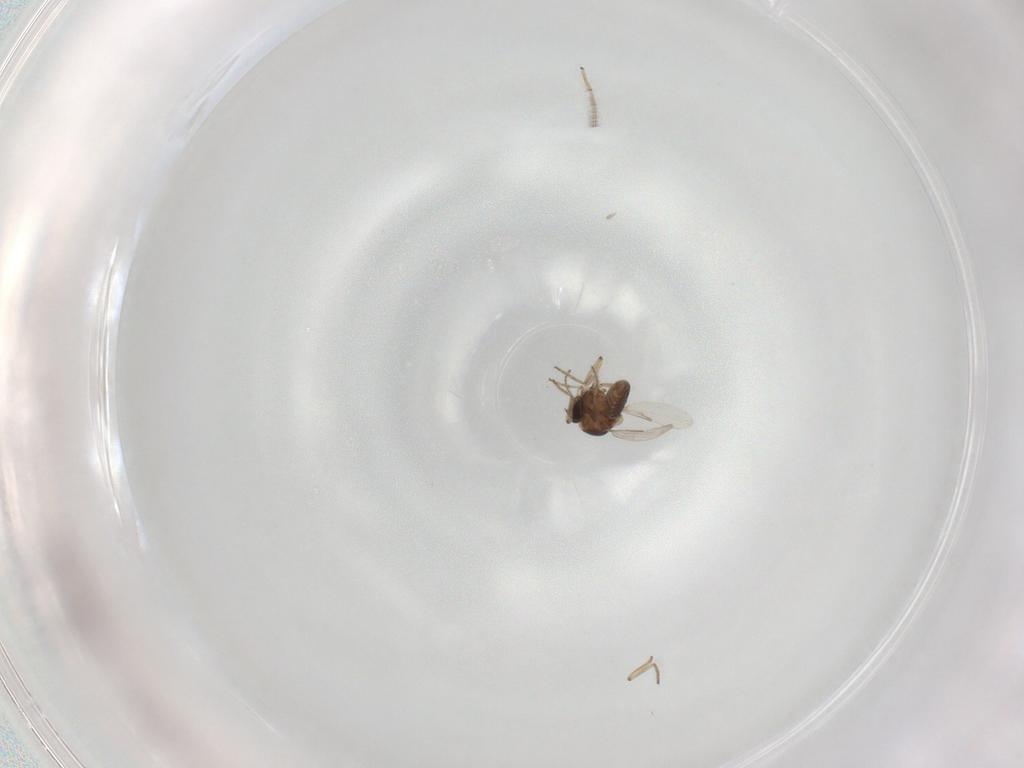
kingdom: Animalia
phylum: Arthropoda
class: Insecta
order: Diptera
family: Ceratopogonidae
